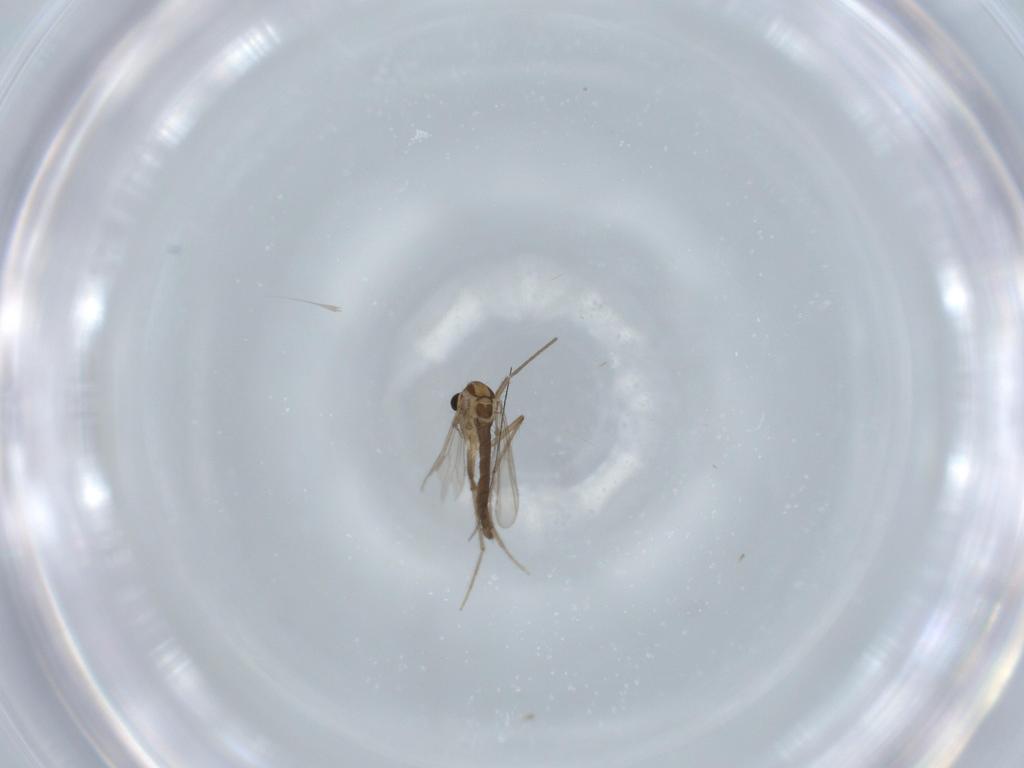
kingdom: Animalia
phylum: Arthropoda
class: Insecta
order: Diptera
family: Chironomidae
